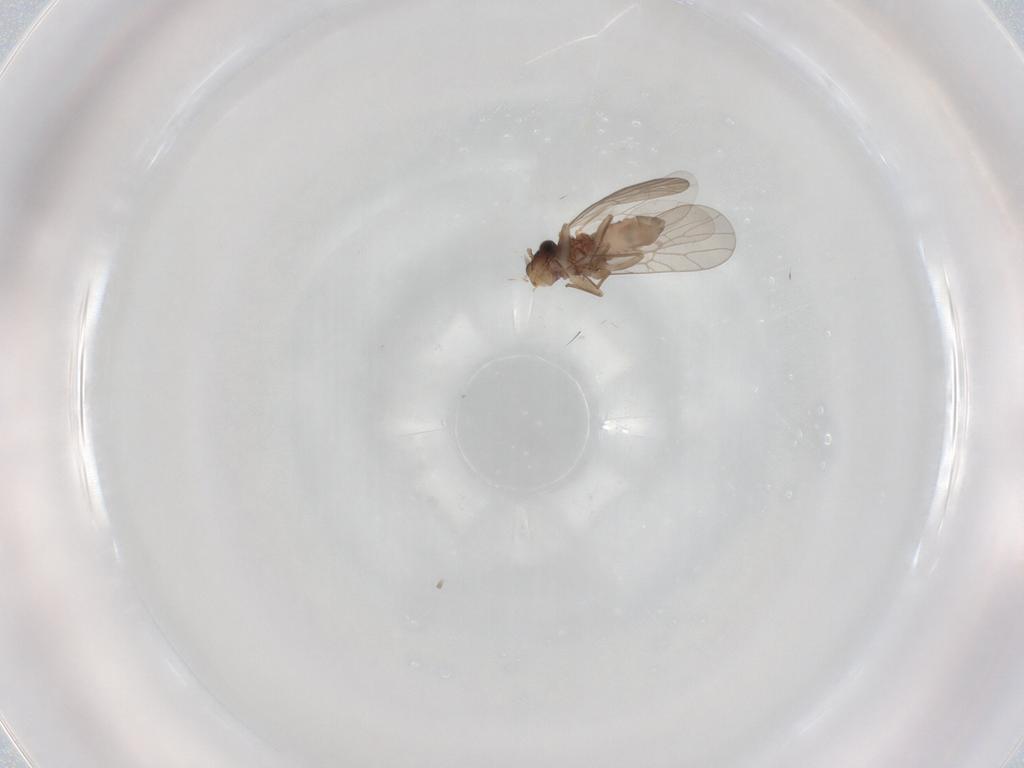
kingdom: Animalia
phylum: Arthropoda
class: Insecta
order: Psocodea
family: Lepidopsocidae
